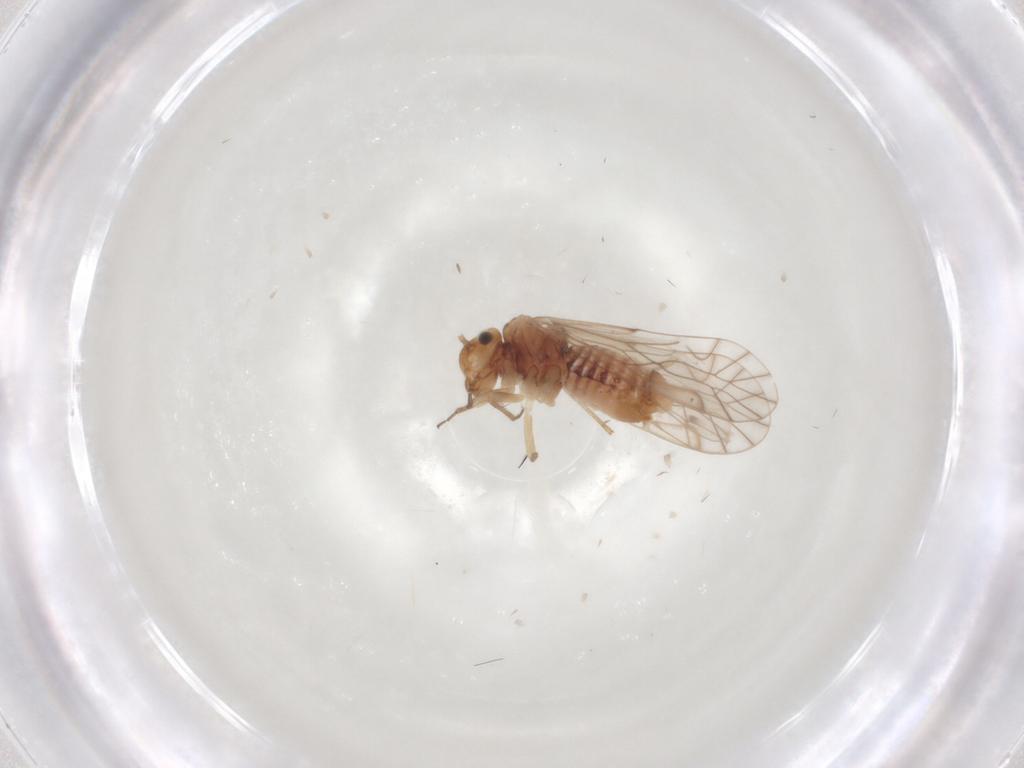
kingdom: Animalia
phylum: Arthropoda
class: Insecta
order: Psocodea
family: Lachesillidae
